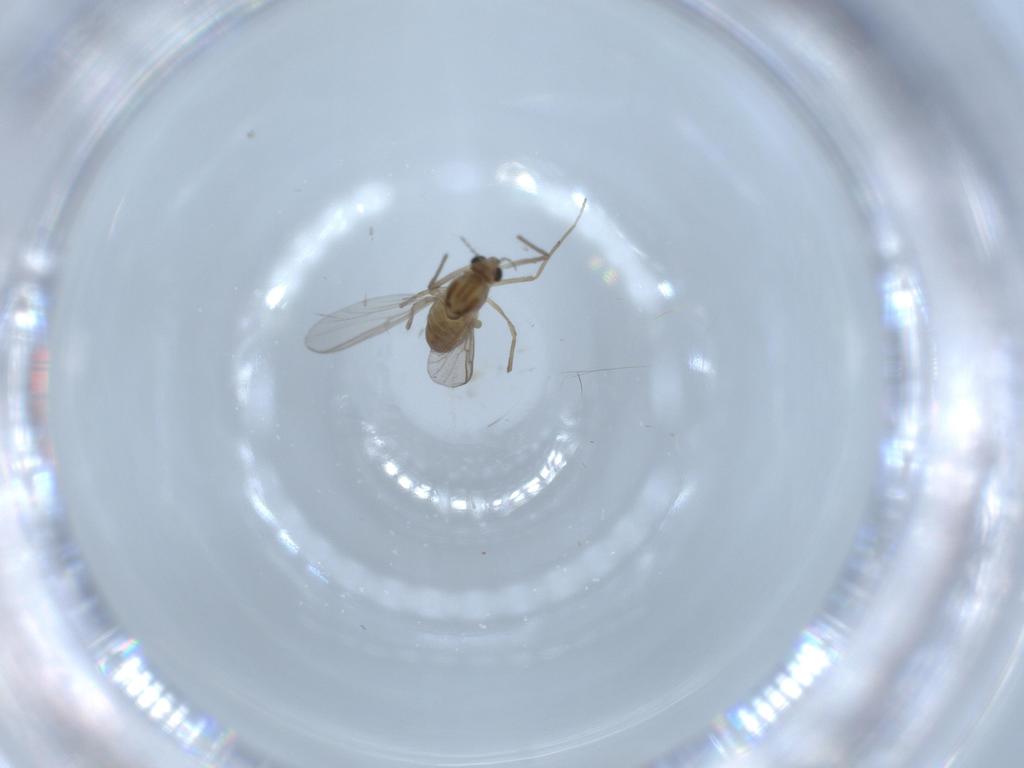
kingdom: Animalia
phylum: Arthropoda
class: Insecta
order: Diptera
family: Chironomidae
